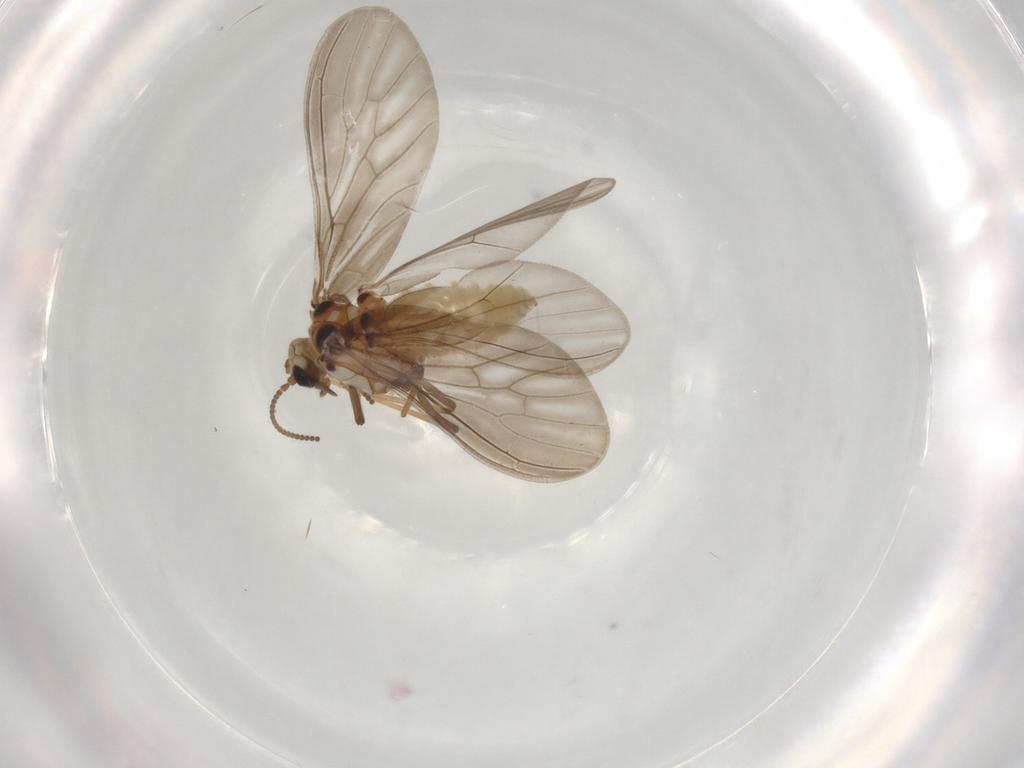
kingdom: Animalia
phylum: Arthropoda
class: Insecta
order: Neuroptera
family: Coniopterygidae
